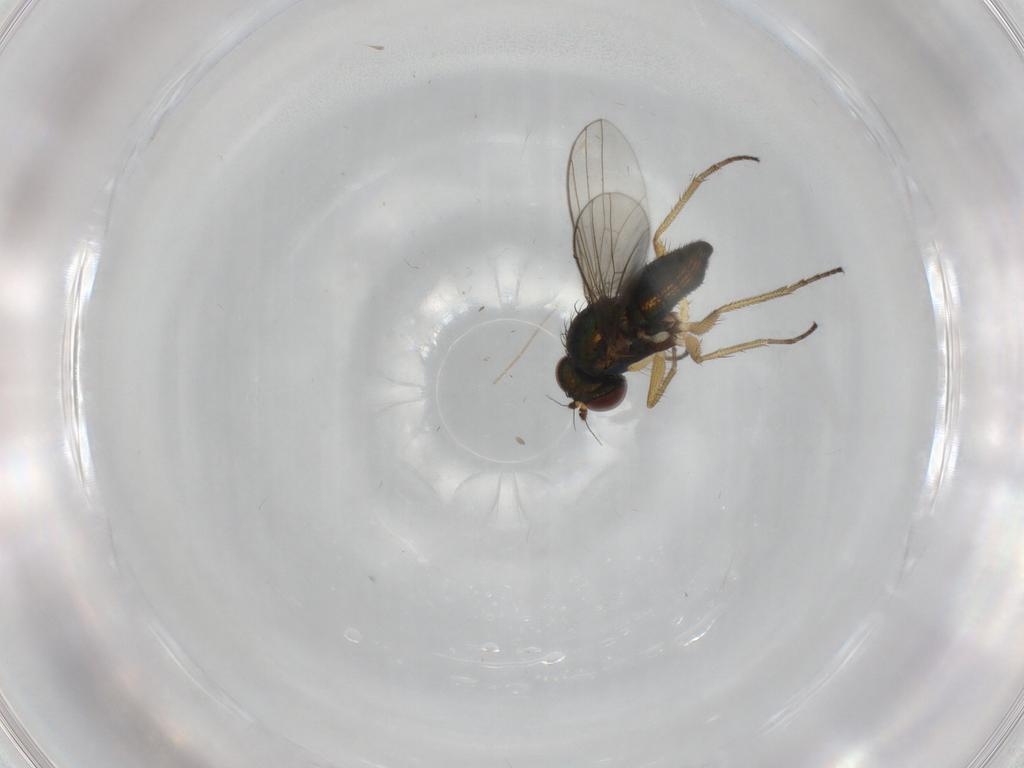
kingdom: Animalia
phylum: Arthropoda
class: Insecta
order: Diptera
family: Dolichopodidae
